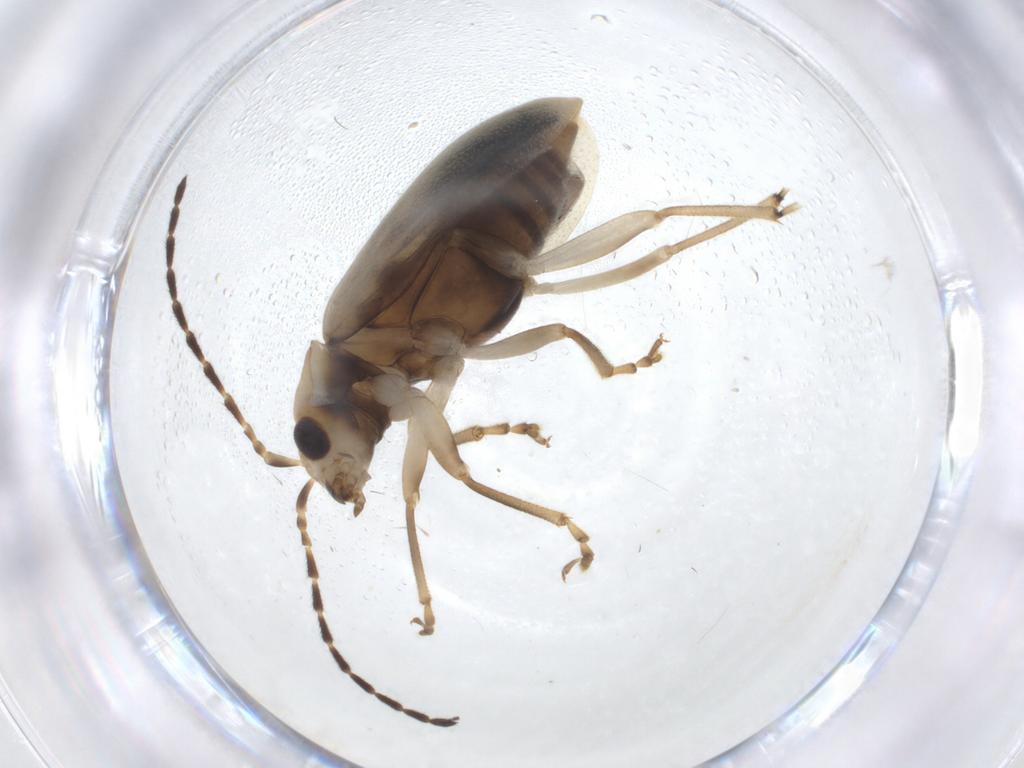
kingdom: Animalia
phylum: Arthropoda
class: Insecta
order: Coleoptera
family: Chrysomelidae
